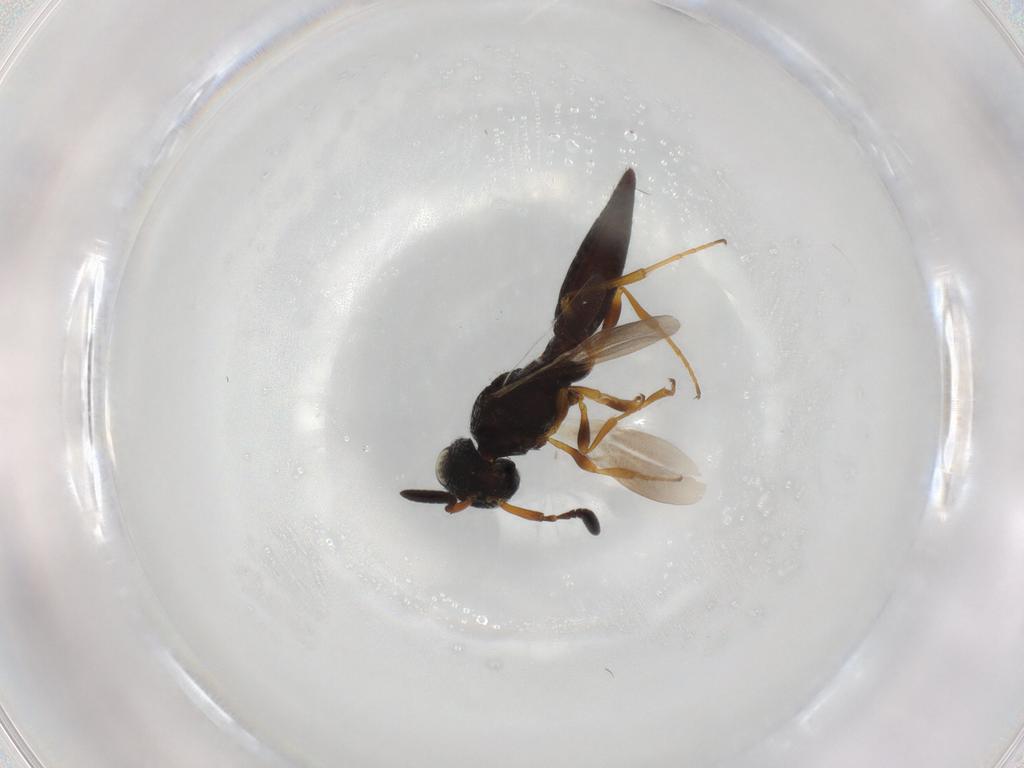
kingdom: Animalia
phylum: Arthropoda
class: Insecta
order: Hymenoptera
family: Scelionidae
